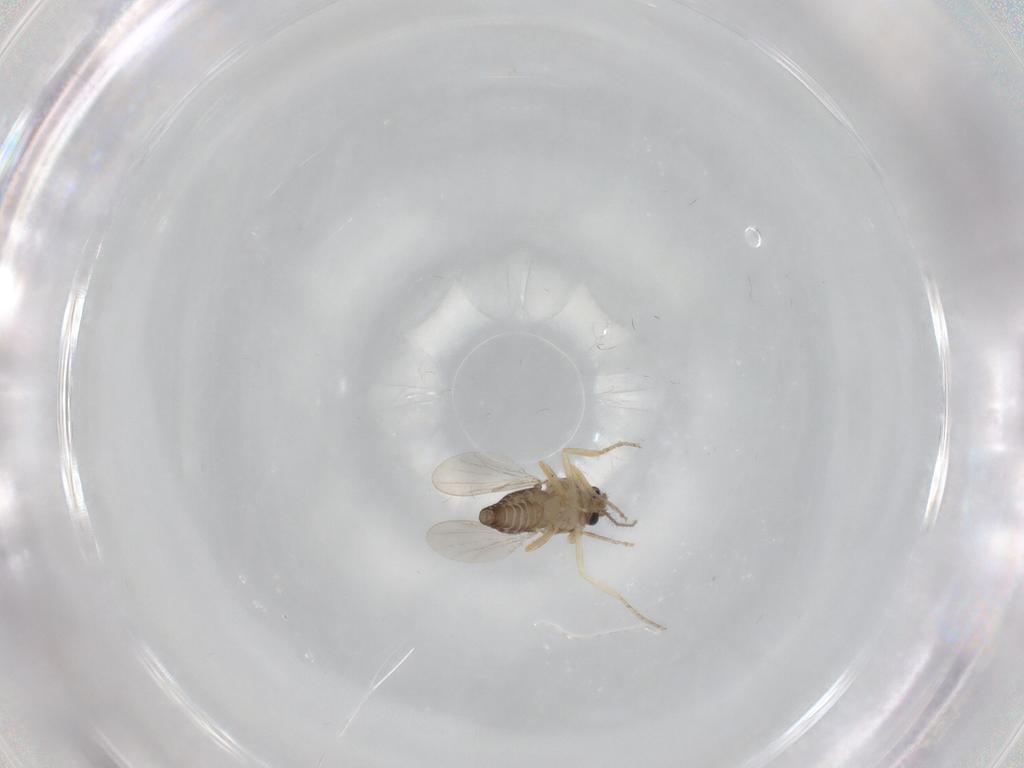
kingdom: Animalia
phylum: Arthropoda
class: Insecta
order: Diptera
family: Ceratopogonidae
